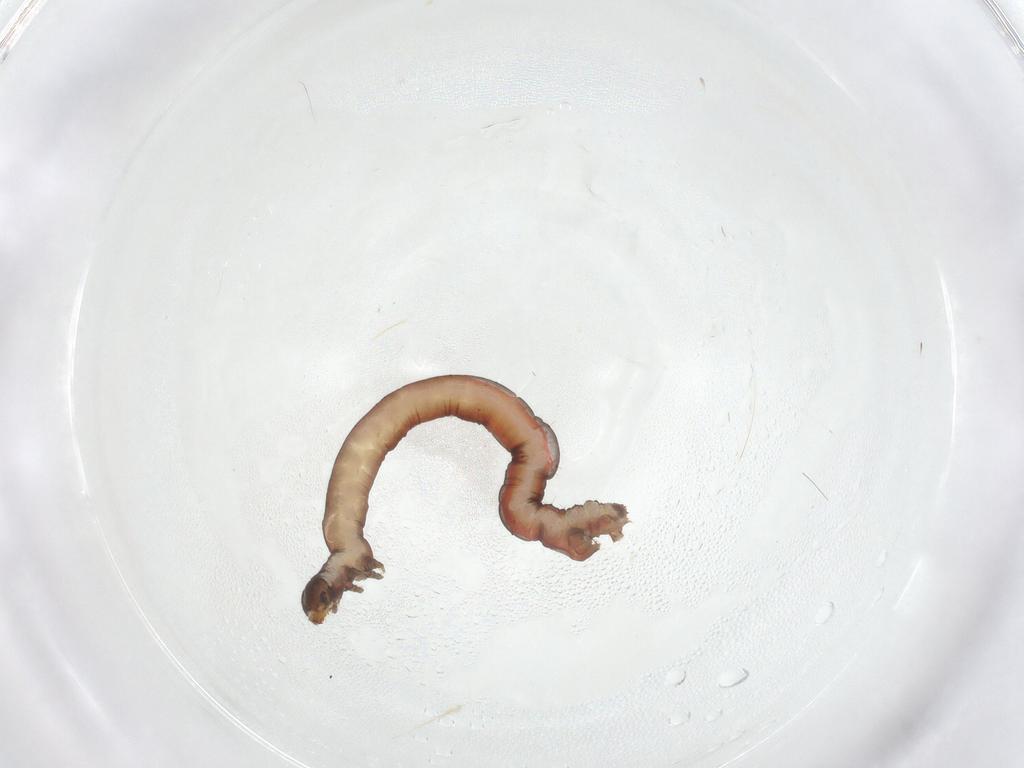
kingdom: Animalia
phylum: Arthropoda
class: Insecta
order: Lepidoptera
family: Geometridae
